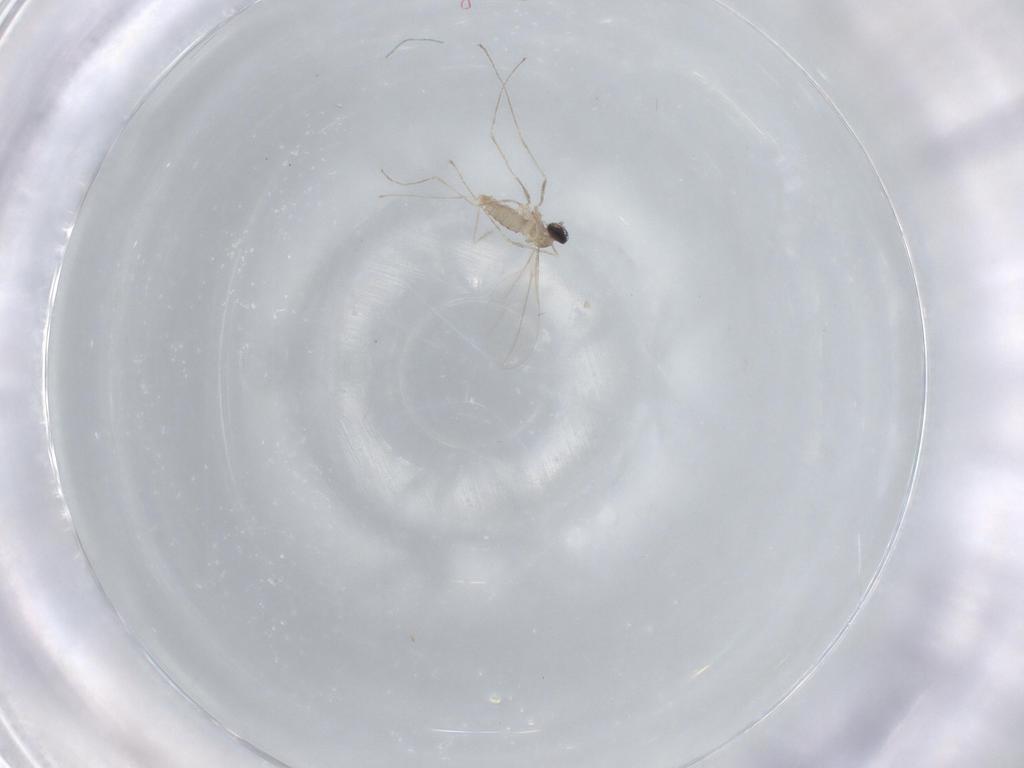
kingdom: Animalia
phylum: Arthropoda
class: Insecta
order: Diptera
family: Cecidomyiidae
